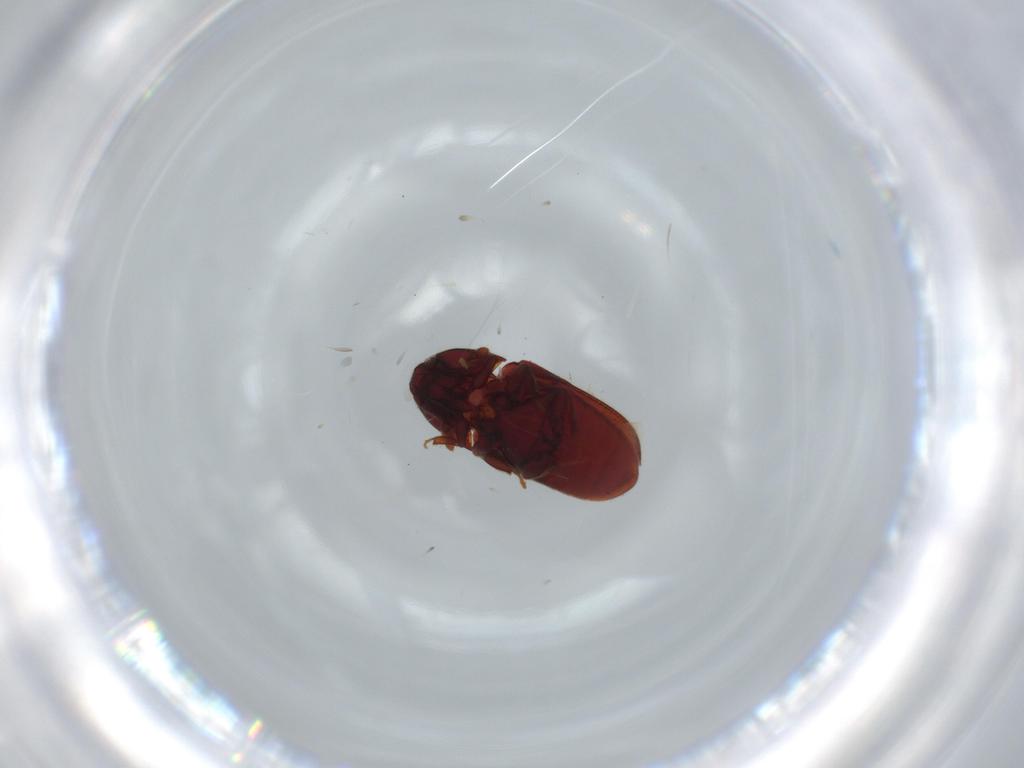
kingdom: Animalia
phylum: Arthropoda
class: Insecta
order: Coleoptera
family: Throscidae
